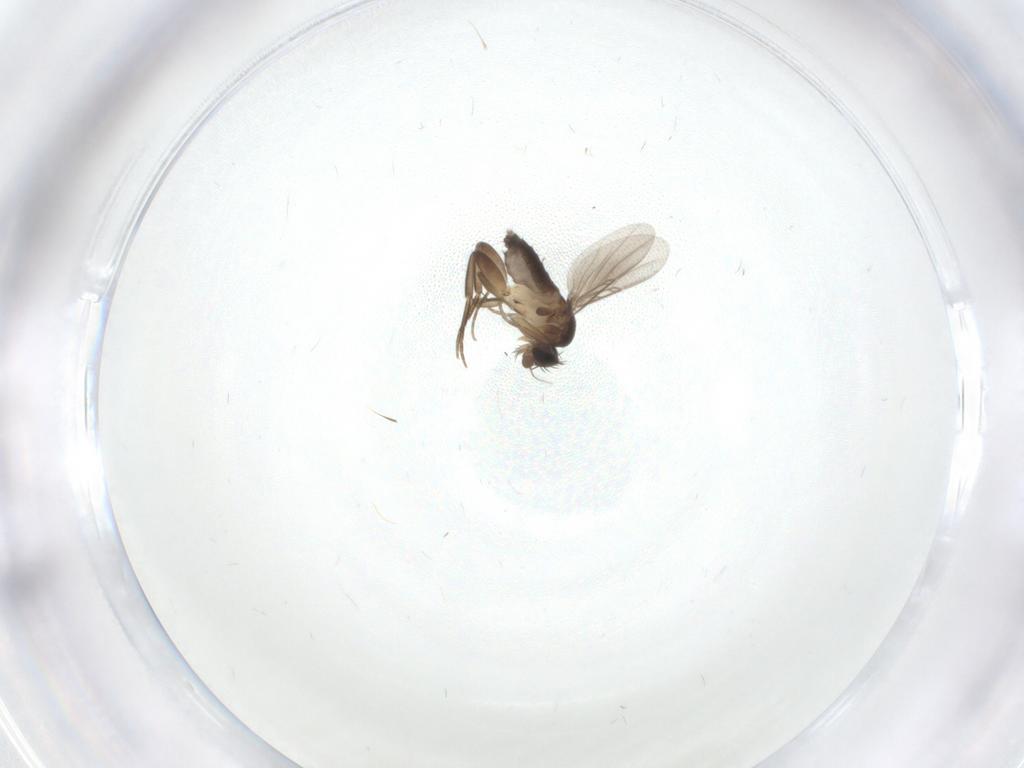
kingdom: Animalia
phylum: Arthropoda
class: Insecta
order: Diptera
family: Phoridae
